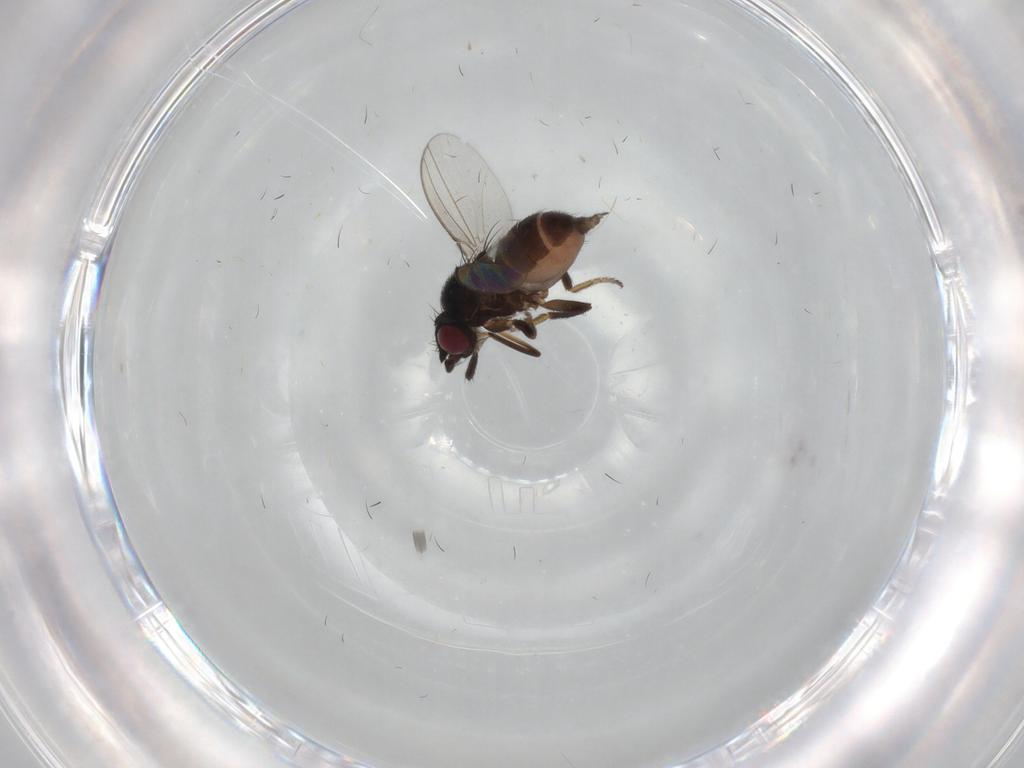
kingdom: Animalia
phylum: Arthropoda
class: Insecta
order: Diptera
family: Milichiidae
